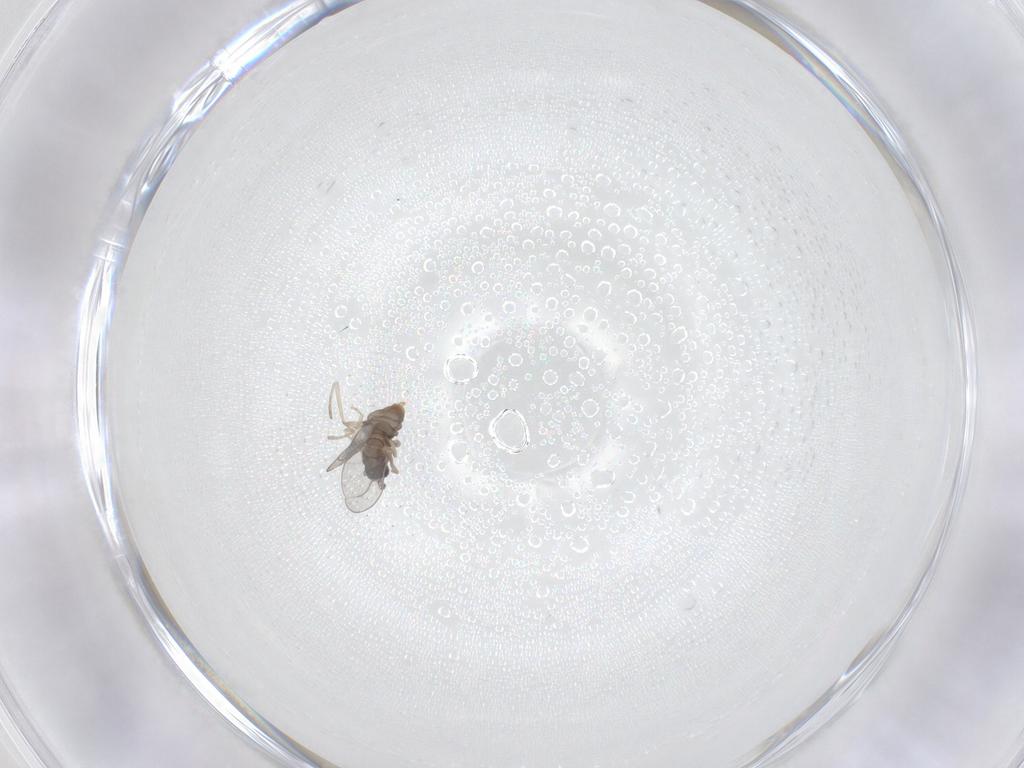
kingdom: Animalia
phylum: Arthropoda
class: Insecta
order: Diptera
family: Cecidomyiidae
